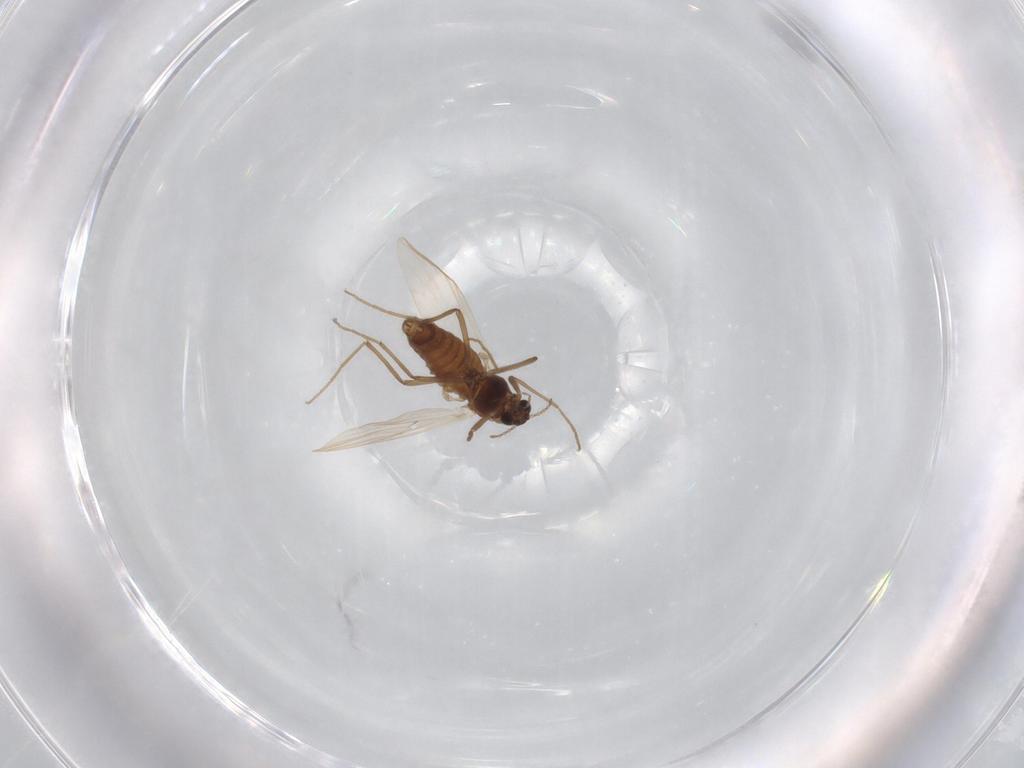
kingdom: Animalia
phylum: Arthropoda
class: Insecta
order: Diptera
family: Chironomidae
